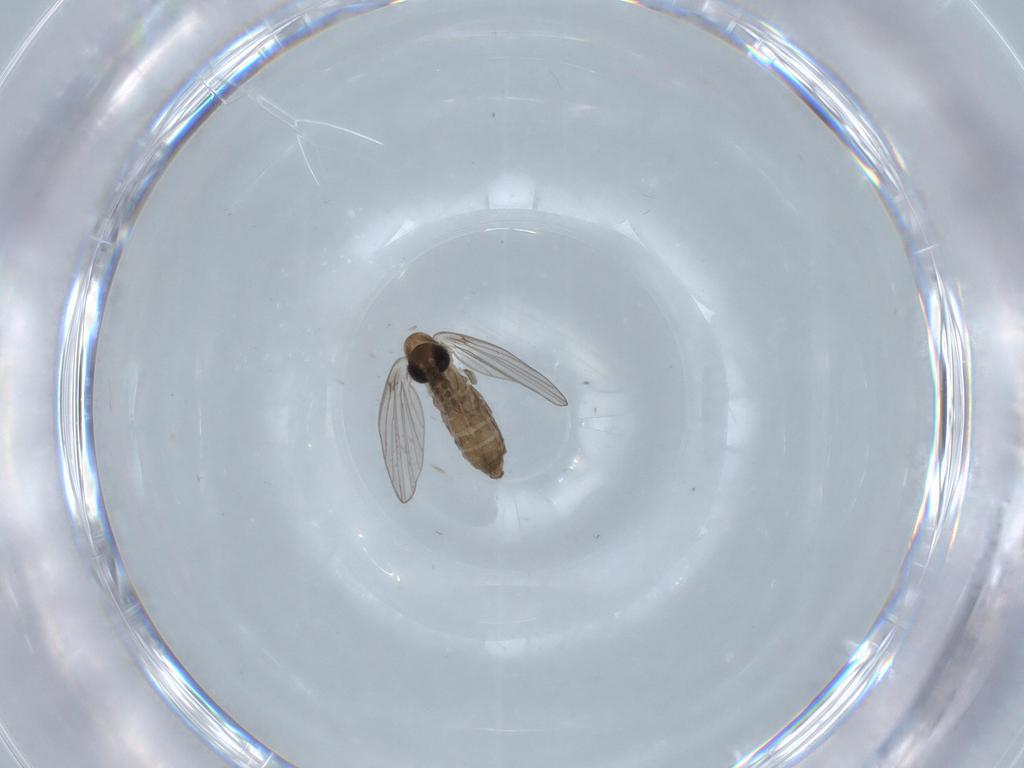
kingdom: Animalia
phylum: Arthropoda
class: Insecta
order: Diptera
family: Psychodidae
